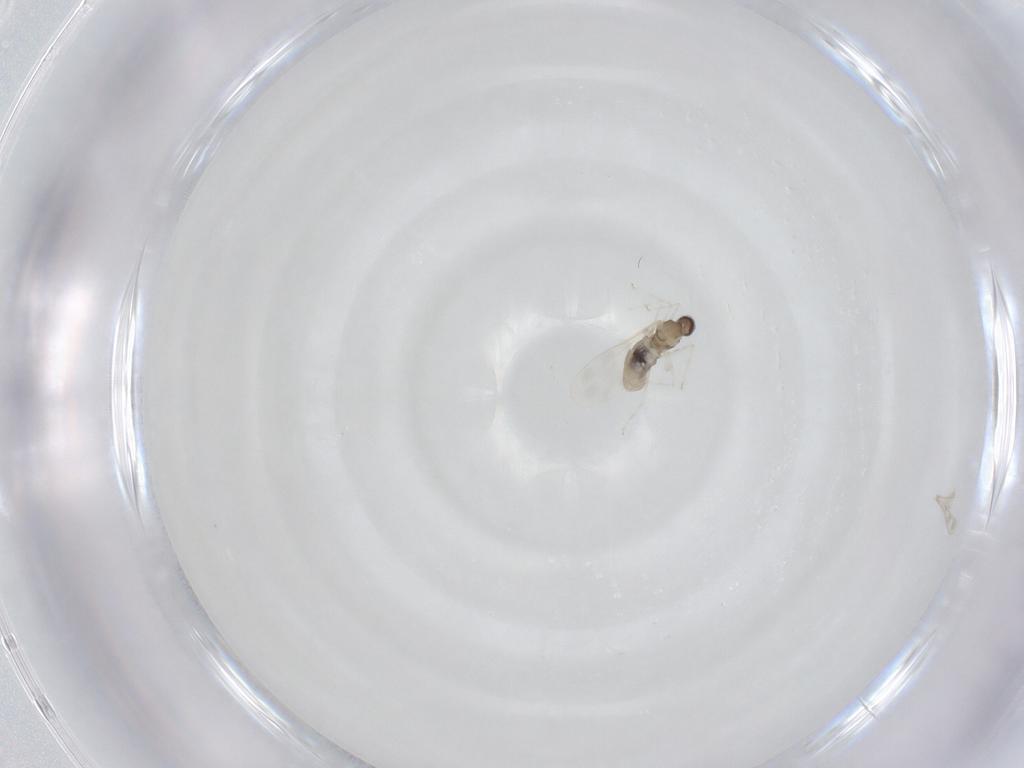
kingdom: Animalia
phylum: Arthropoda
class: Insecta
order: Diptera
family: Cecidomyiidae
